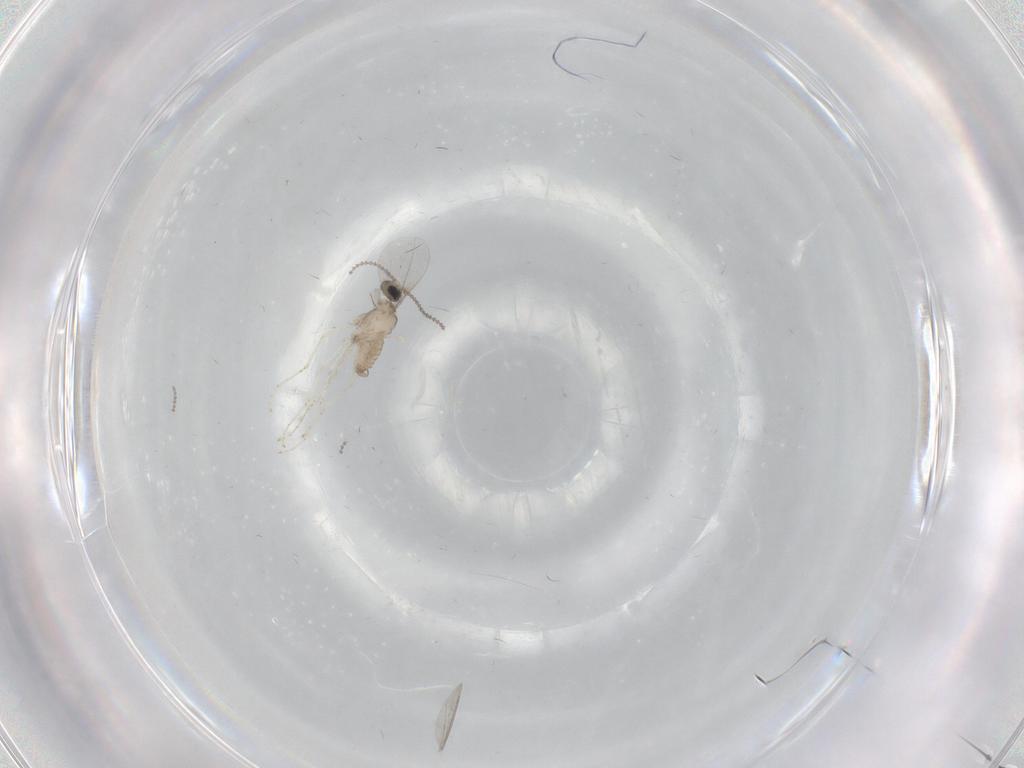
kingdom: Animalia
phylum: Arthropoda
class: Insecta
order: Diptera
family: Cecidomyiidae
